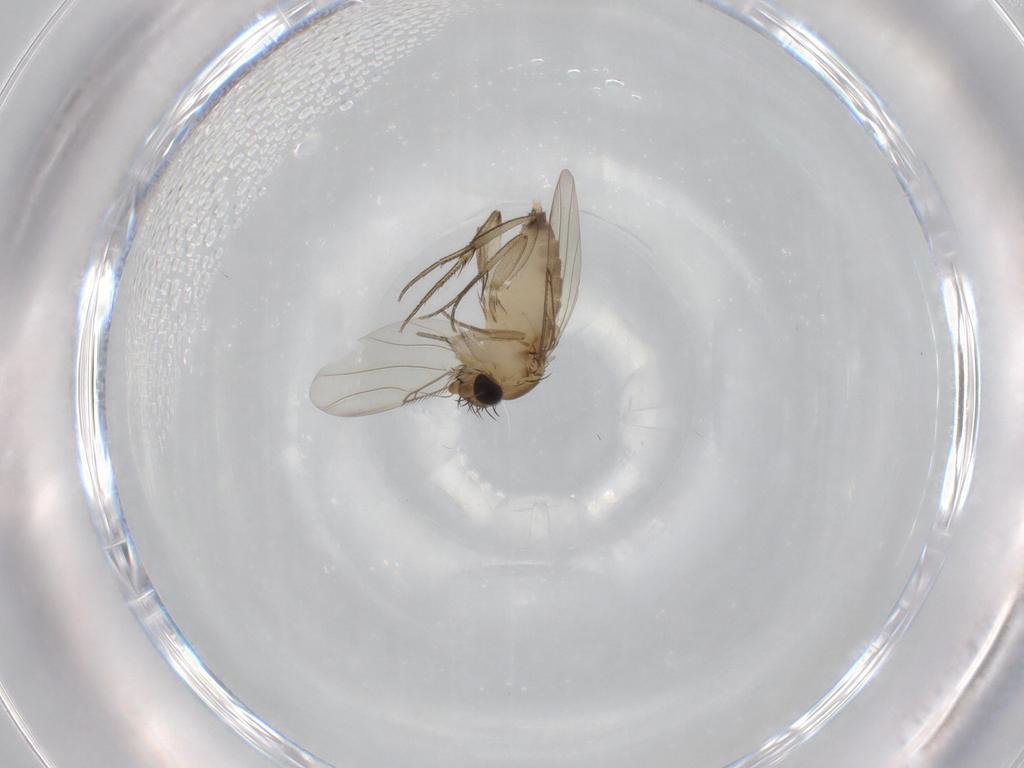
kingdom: Animalia
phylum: Arthropoda
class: Insecta
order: Diptera
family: Phoridae
